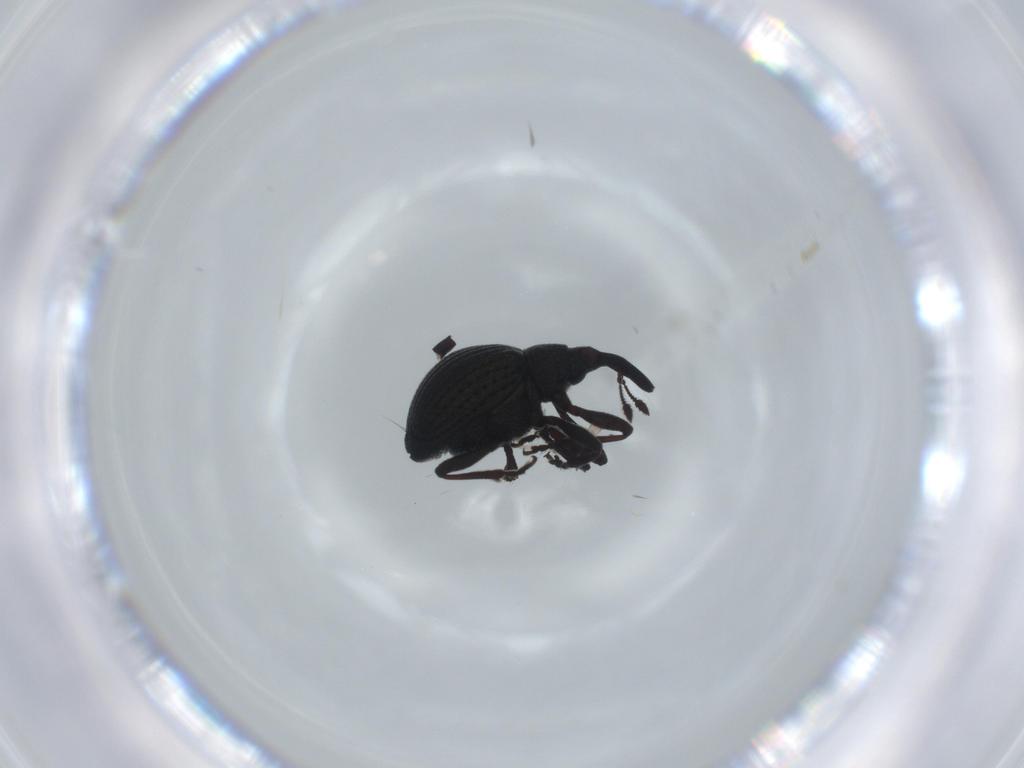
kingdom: Animalia
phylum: Arthropoda
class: Insecta
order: Coleoptera
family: Brentidae
